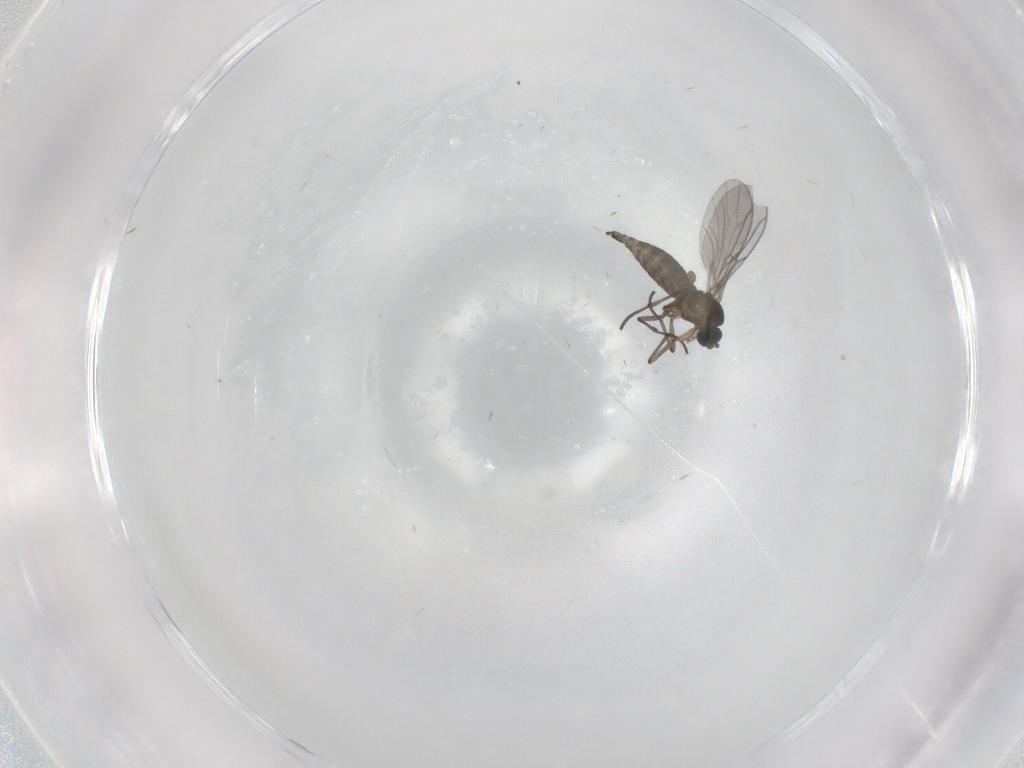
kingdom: Animalia
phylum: Arthropoda
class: Insecta
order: Diptera
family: Sciaridae
